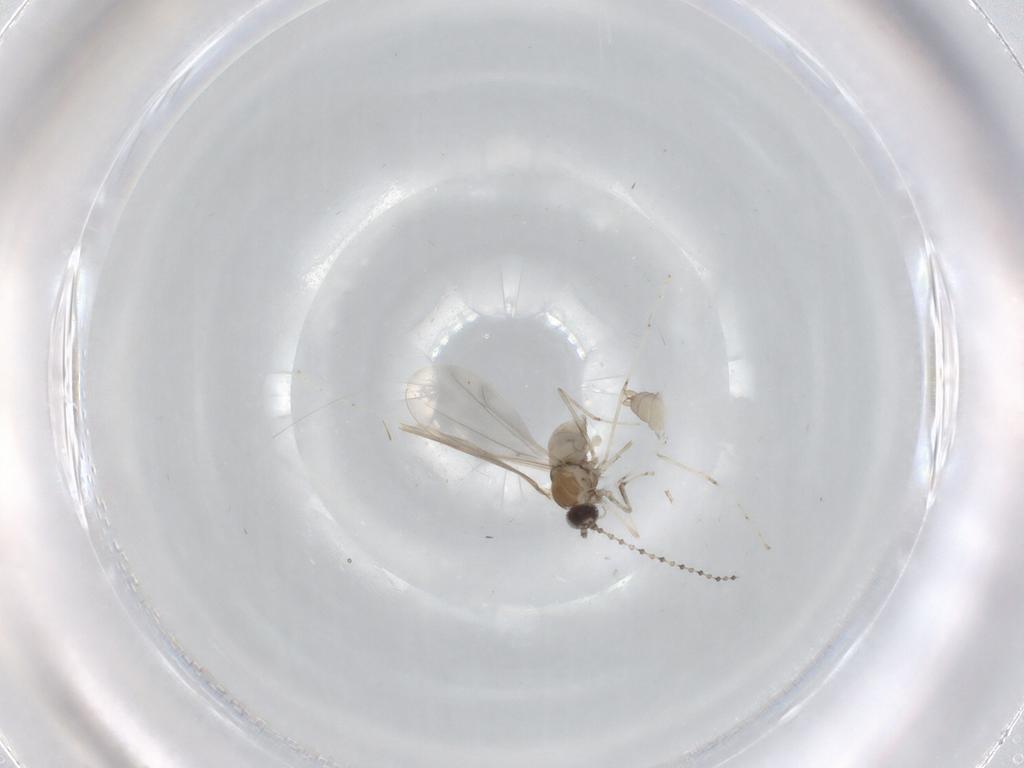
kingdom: Animalia
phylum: Arthropoda
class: Insecta
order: Diptera
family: Cecidomyiidae
